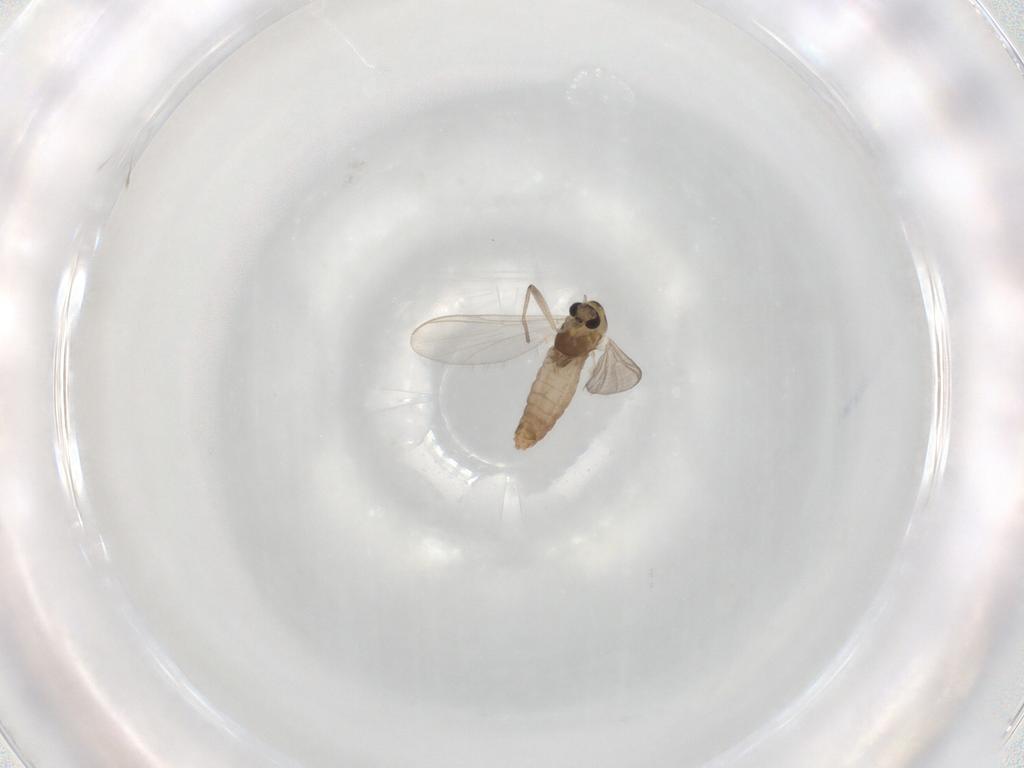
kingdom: Animalia
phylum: Arthropoda
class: Insecta
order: Diptera
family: Chironomidae
